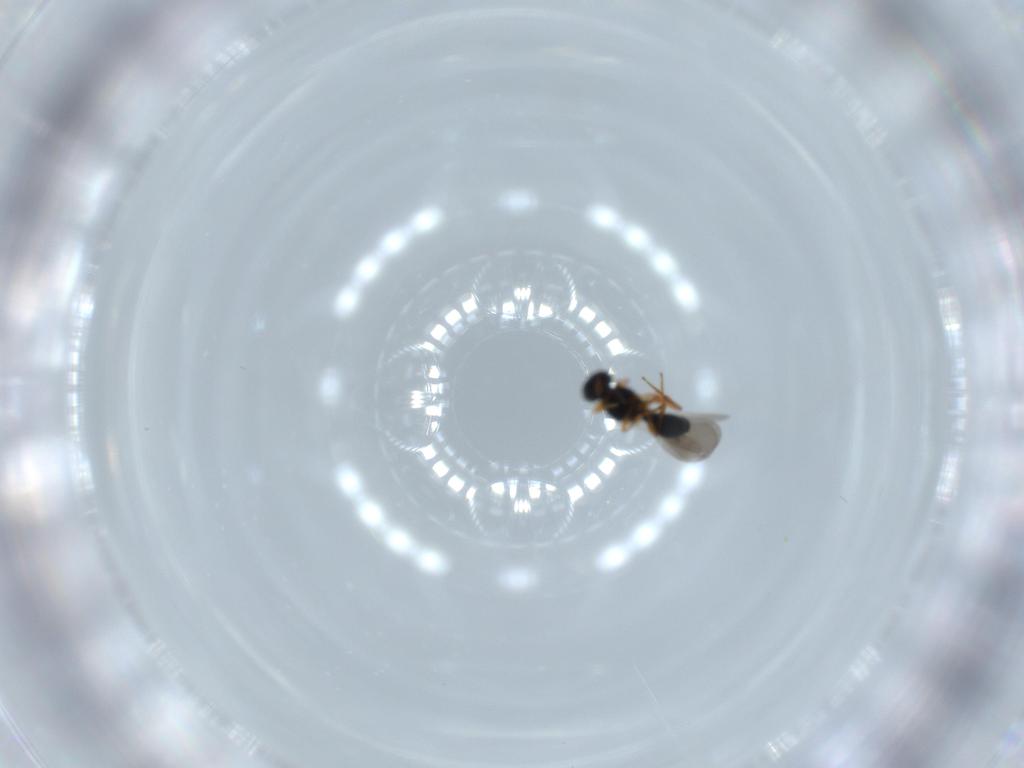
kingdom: Animalia
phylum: Arthropoda
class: Insecta
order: Hymenoptera
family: Platygastridae
